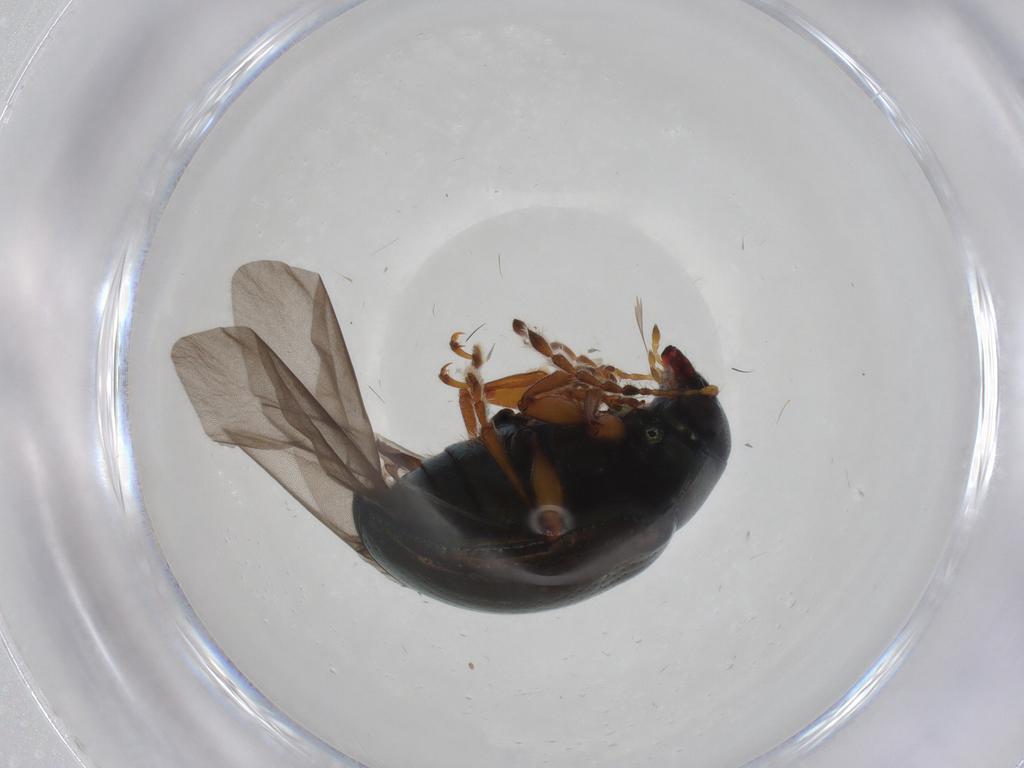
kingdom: Animalia
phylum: Arthropoda
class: Insecta
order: Coleoptera
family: Chrysomelidae
